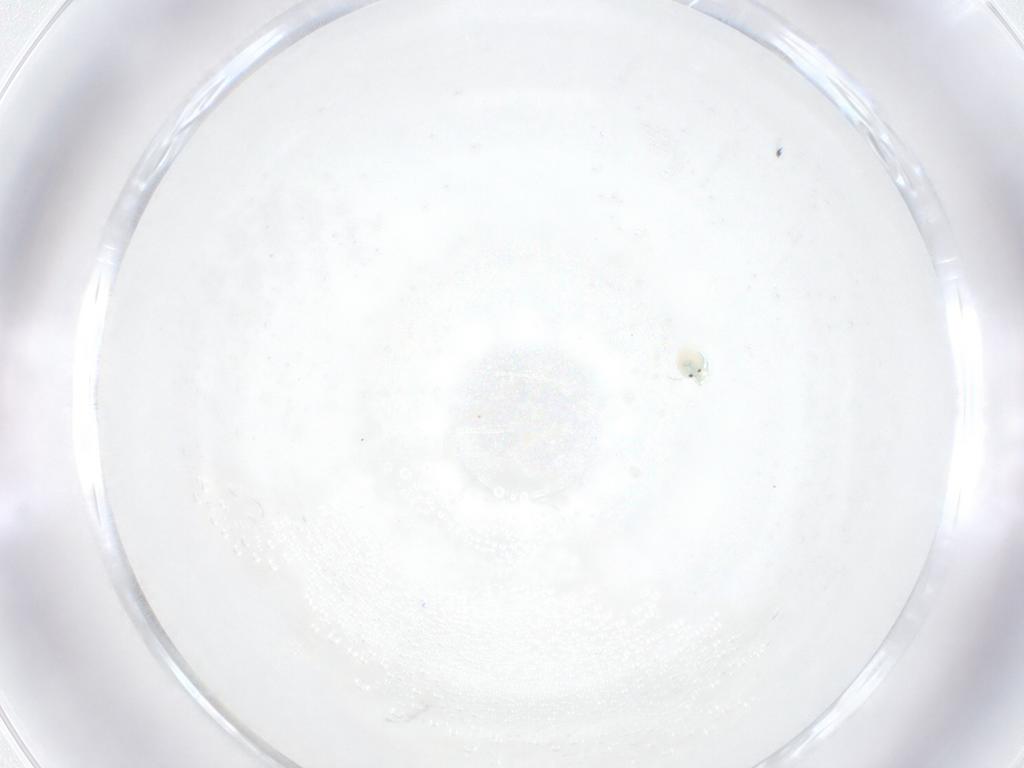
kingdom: Animalia
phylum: Arthropoda
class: Arachnida
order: Trombidiformes
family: Arrenuridae
